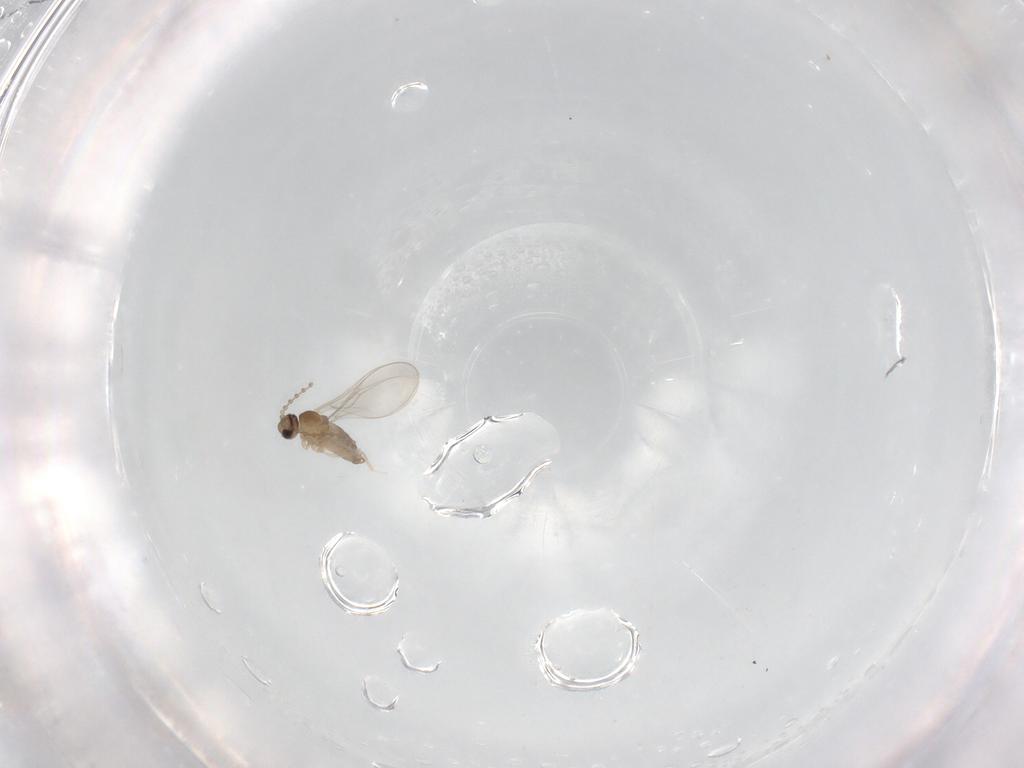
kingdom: Animalia
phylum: Arthropoda
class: Insecta
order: Diptera
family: Cecidomyiidae
